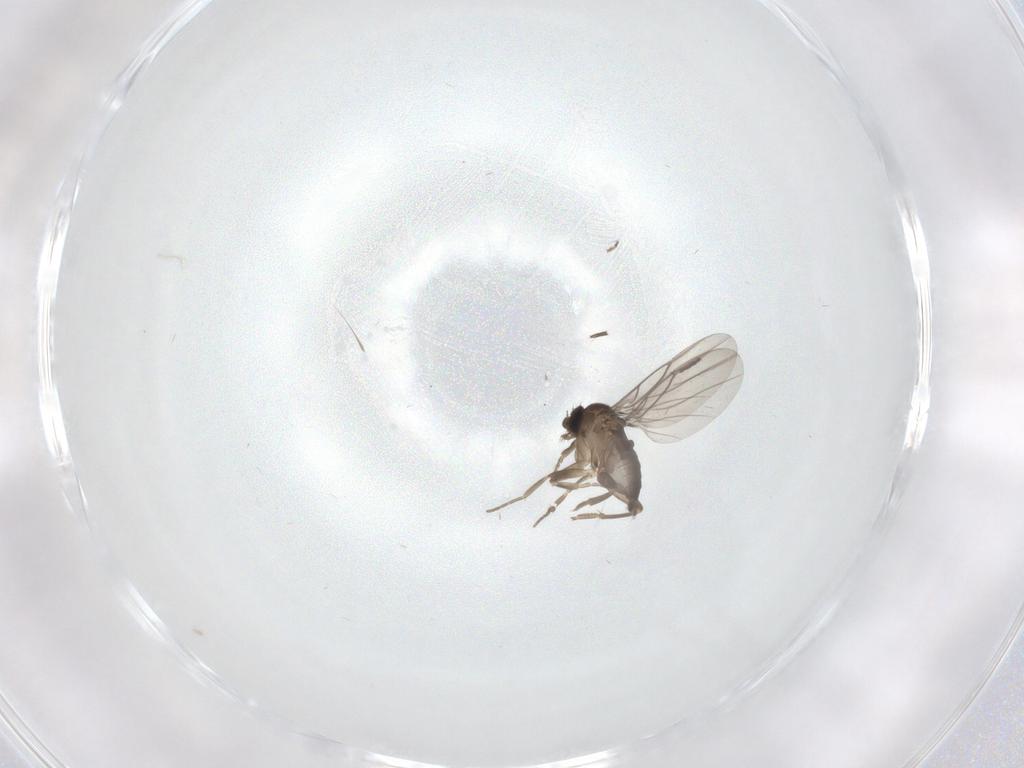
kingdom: Animalia
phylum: Arthropoda
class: Insecta
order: Diptera
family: Phoridae
